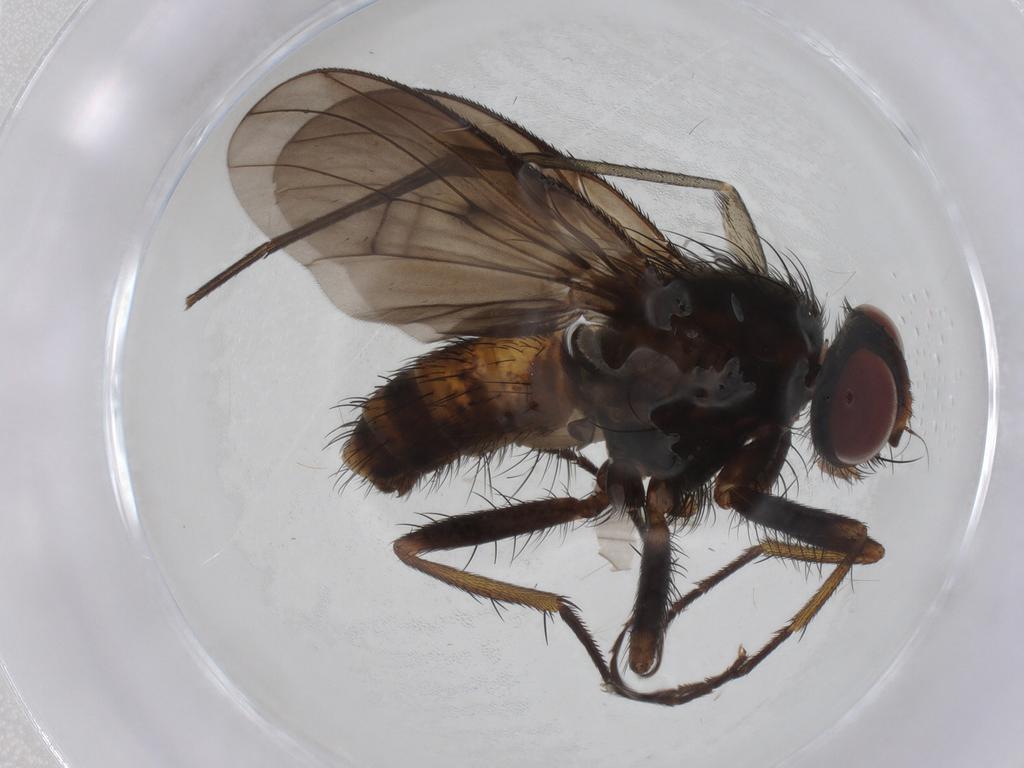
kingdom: Animalia
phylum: Arthropoda
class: Insecta
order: Diptera
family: Muscidae
